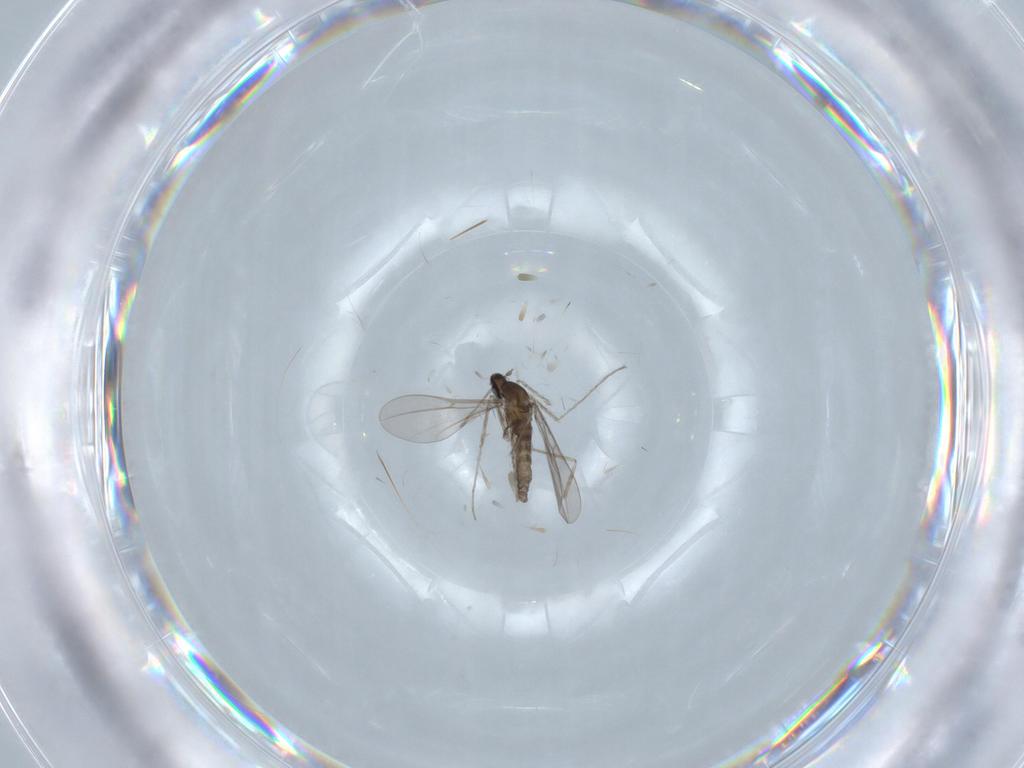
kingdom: Animalia
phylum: Arthropoda
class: Insecta
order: Diptera
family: Cecidomyiidae
